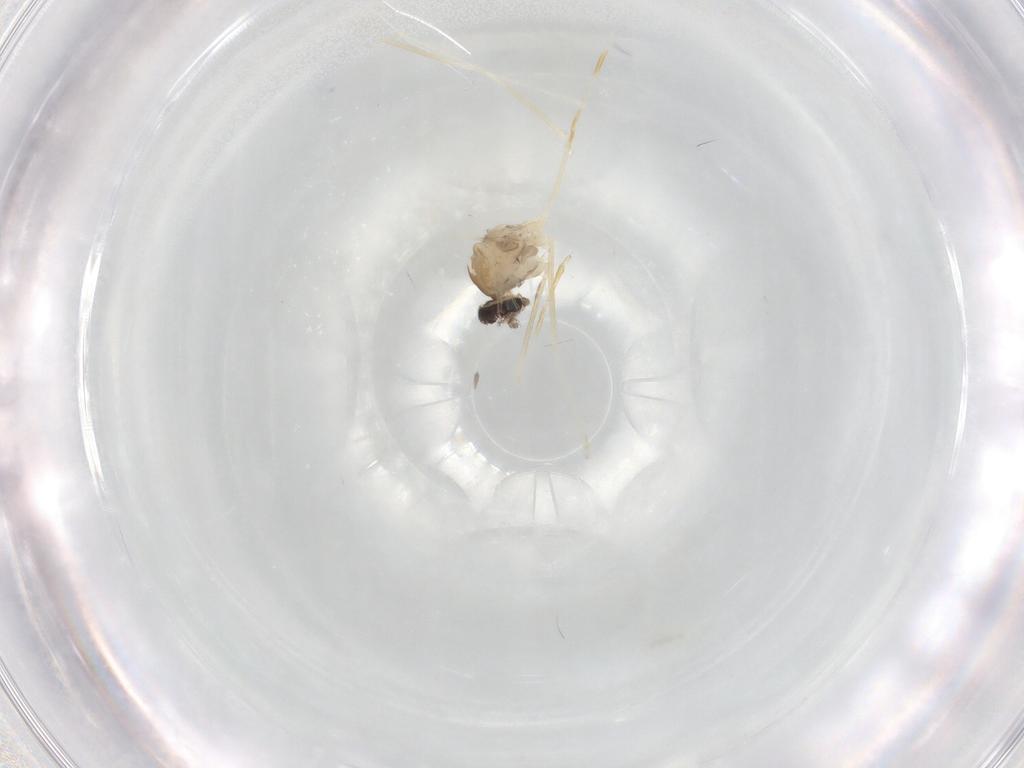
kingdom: Animalia
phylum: Arthropoda
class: Insecta
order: Diptera
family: Cecidomyiidae
